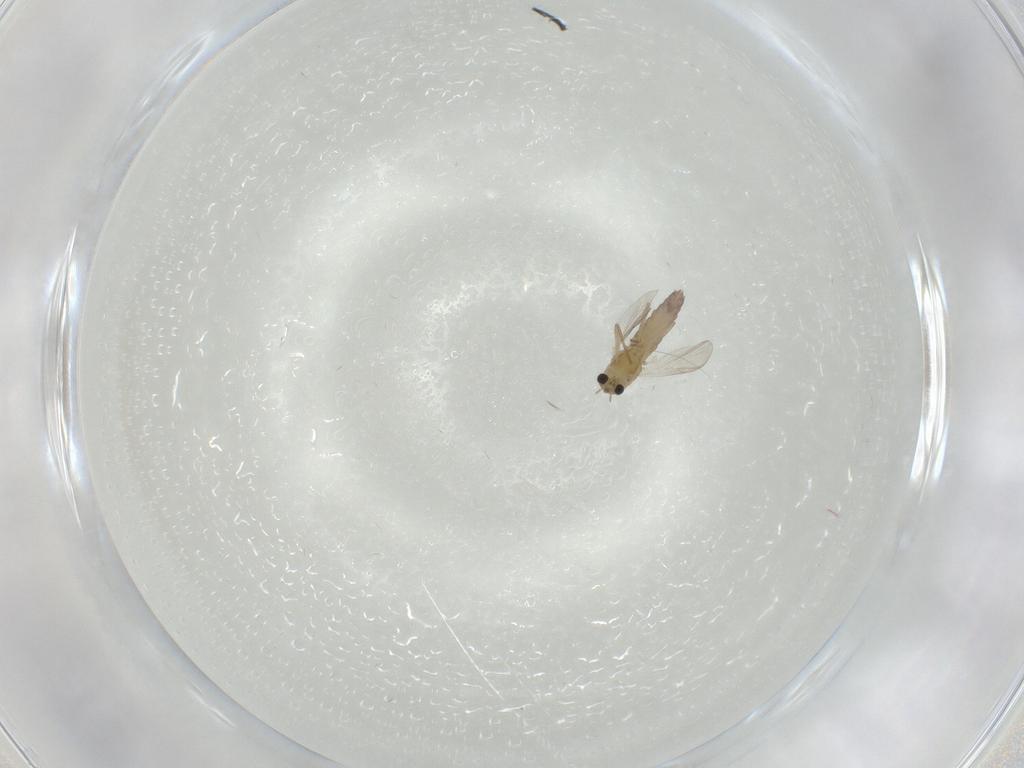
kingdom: Animalia
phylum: Arthropoda
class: Insecta
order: Diptera
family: Chironomidae
